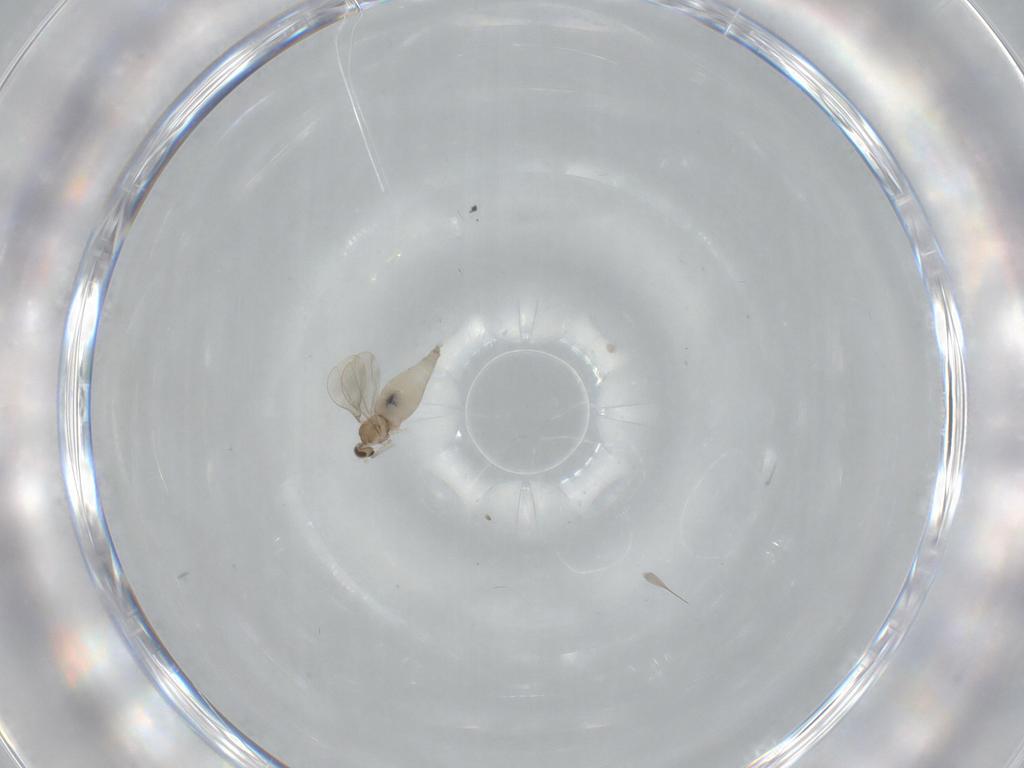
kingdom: Animalia
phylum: Arthropoda
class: Insecta
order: Diptera
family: Cecidomyiidae
